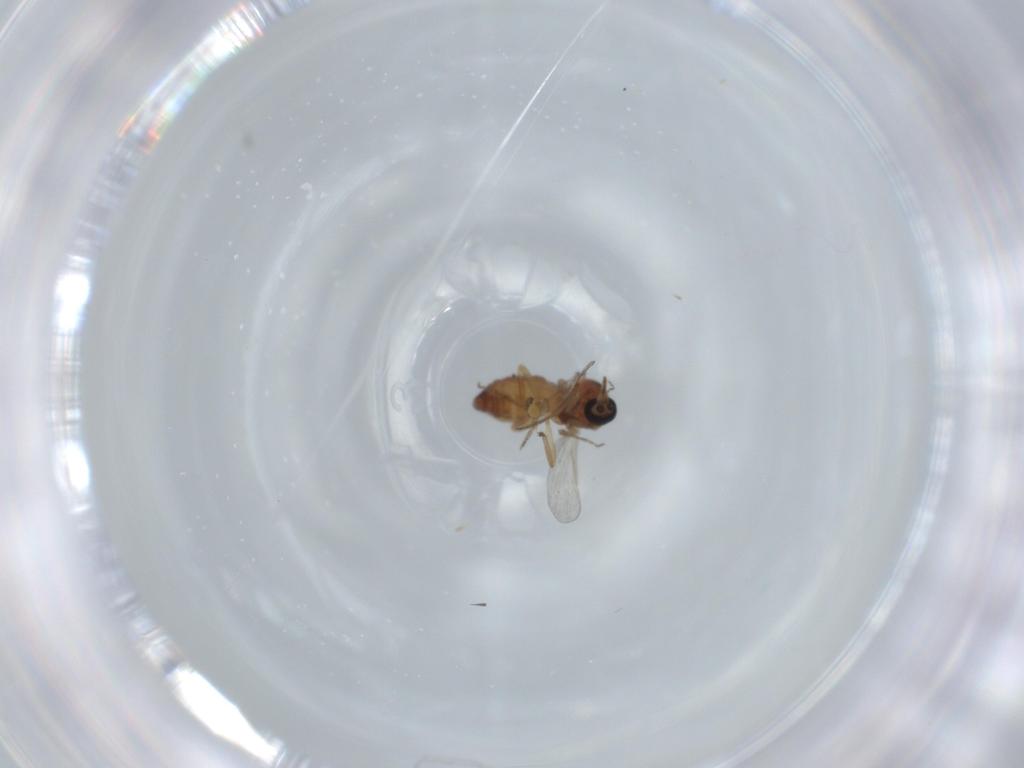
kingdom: Animalia
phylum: Arthropoda
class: Insecta
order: Diptera
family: Ceratopogonidae
